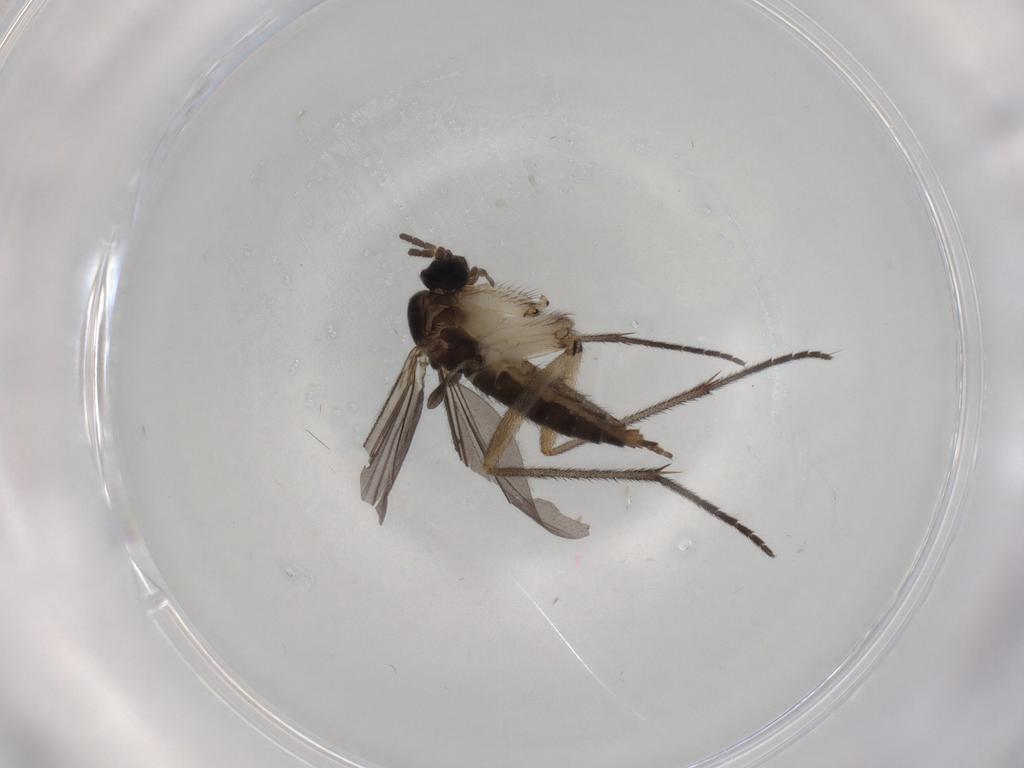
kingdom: Animalia
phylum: Arthropoda
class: Insecta
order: Diptera
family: Sciaridae
